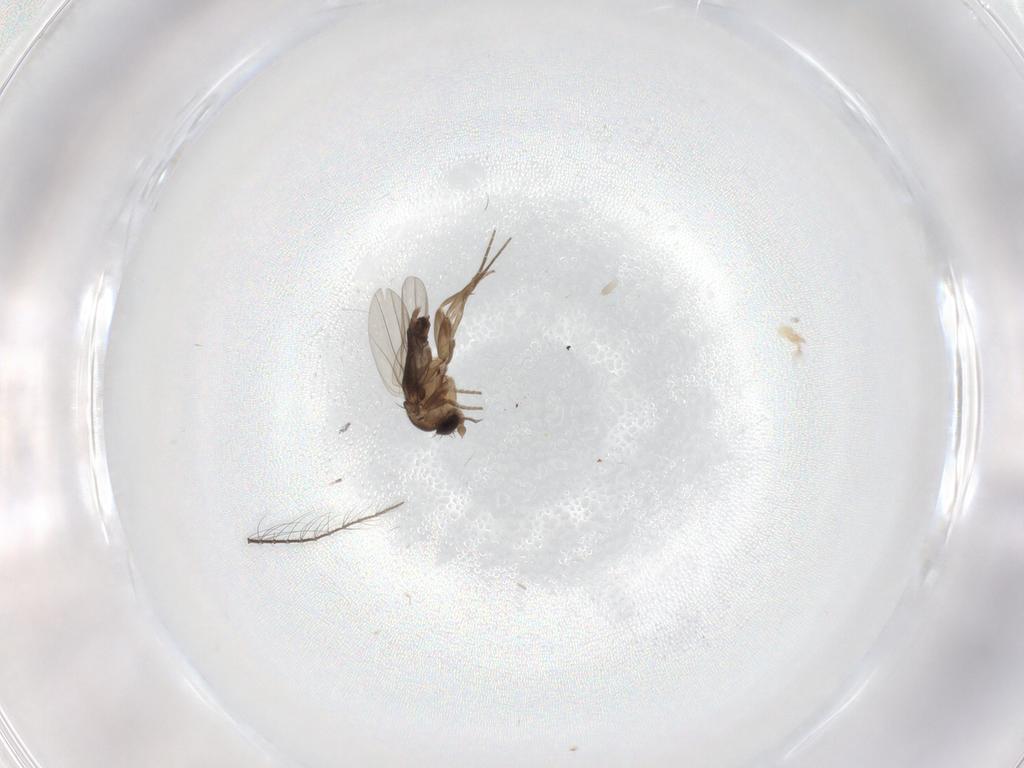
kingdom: Animalia
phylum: Arthropoda
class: Insecta
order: Diptera
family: Culicidae
